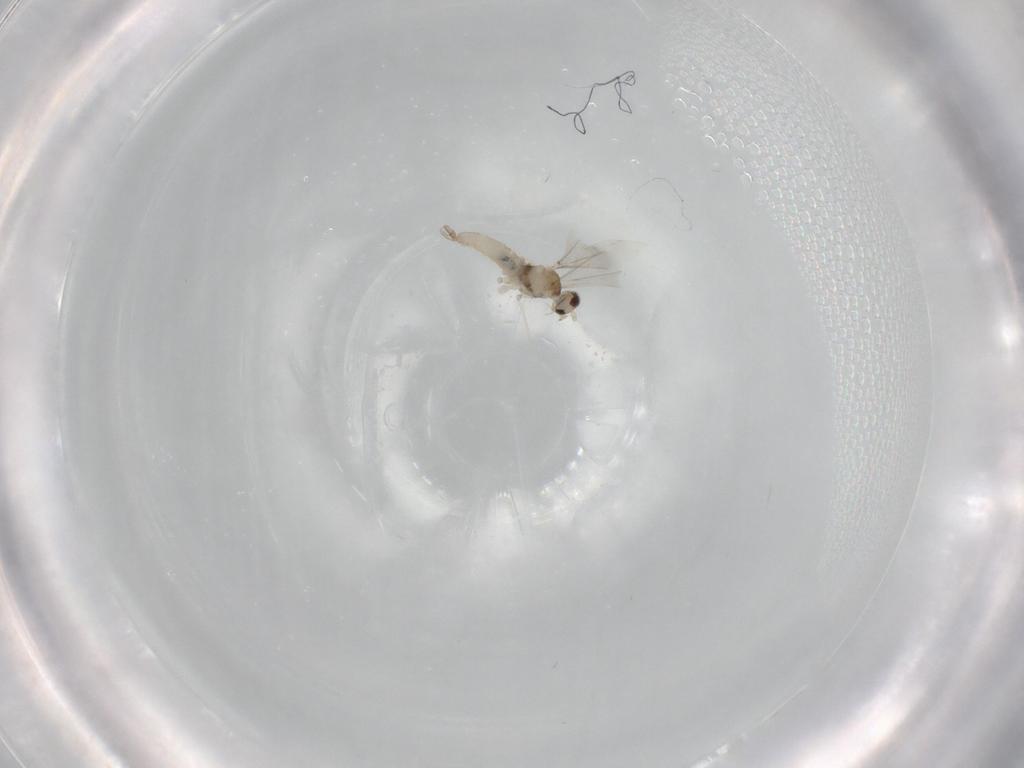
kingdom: Animalia
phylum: Arthropoda
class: Insecta
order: Diptera
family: Cecidomyiidae
